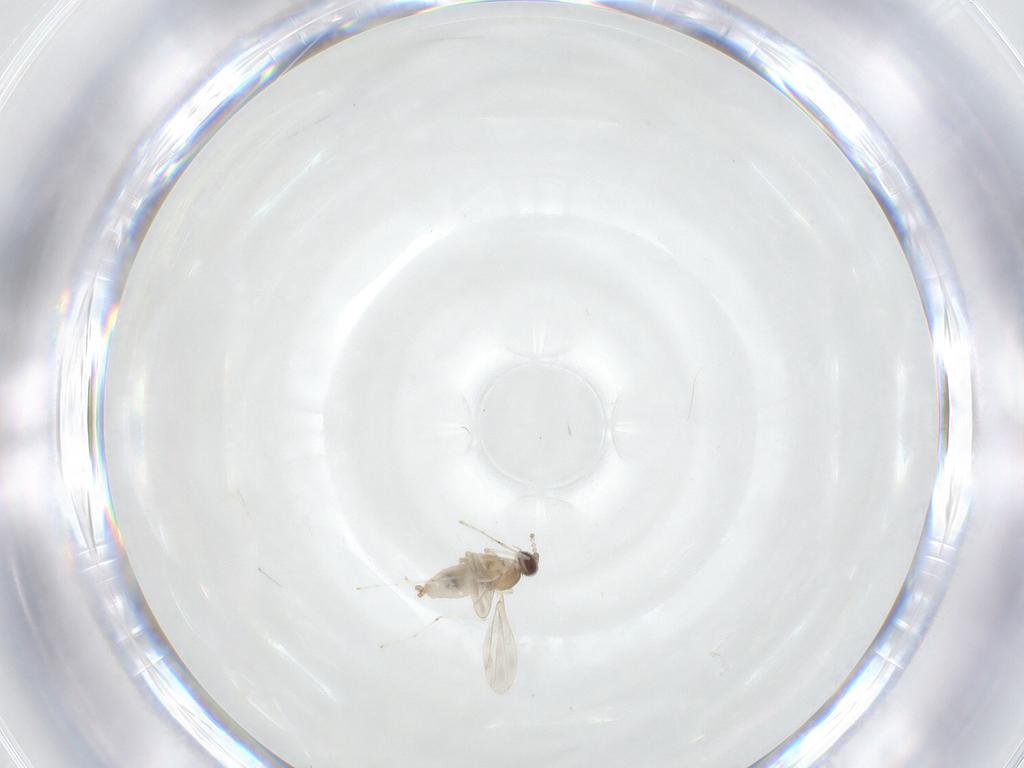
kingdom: Animalia
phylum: Arthropoda
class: Insecta
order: Diptera
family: Cecidomyiidae
